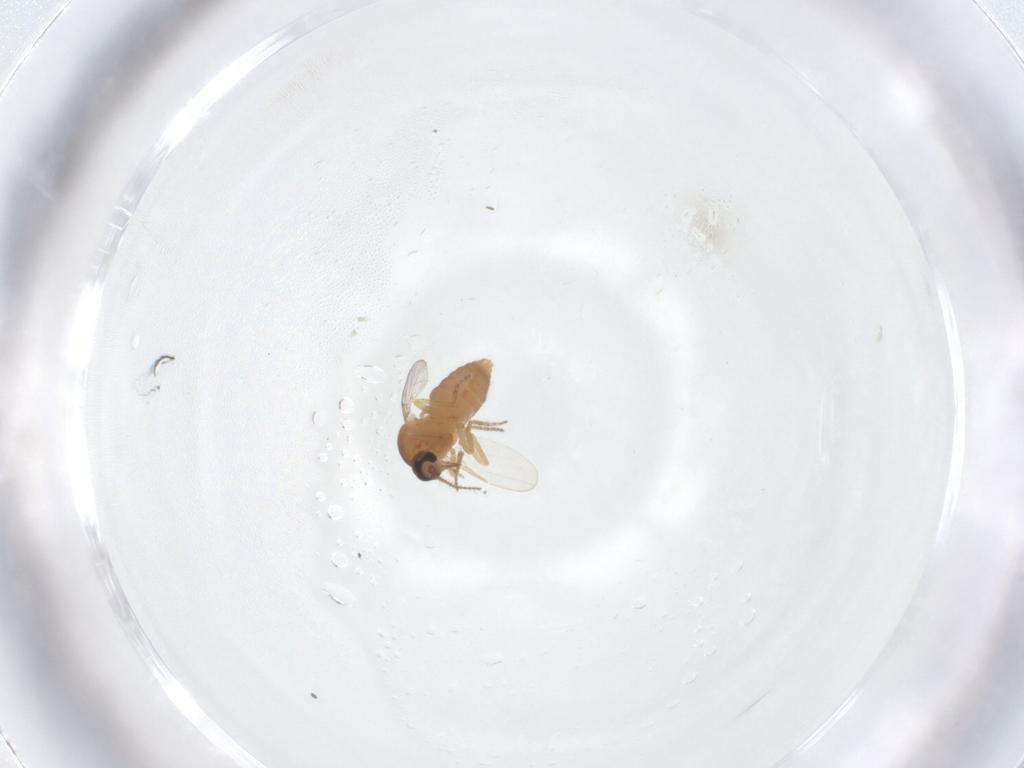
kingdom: Animalia
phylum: Arthropoda
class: Insecta
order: Diptera
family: Ceratopogonidae
